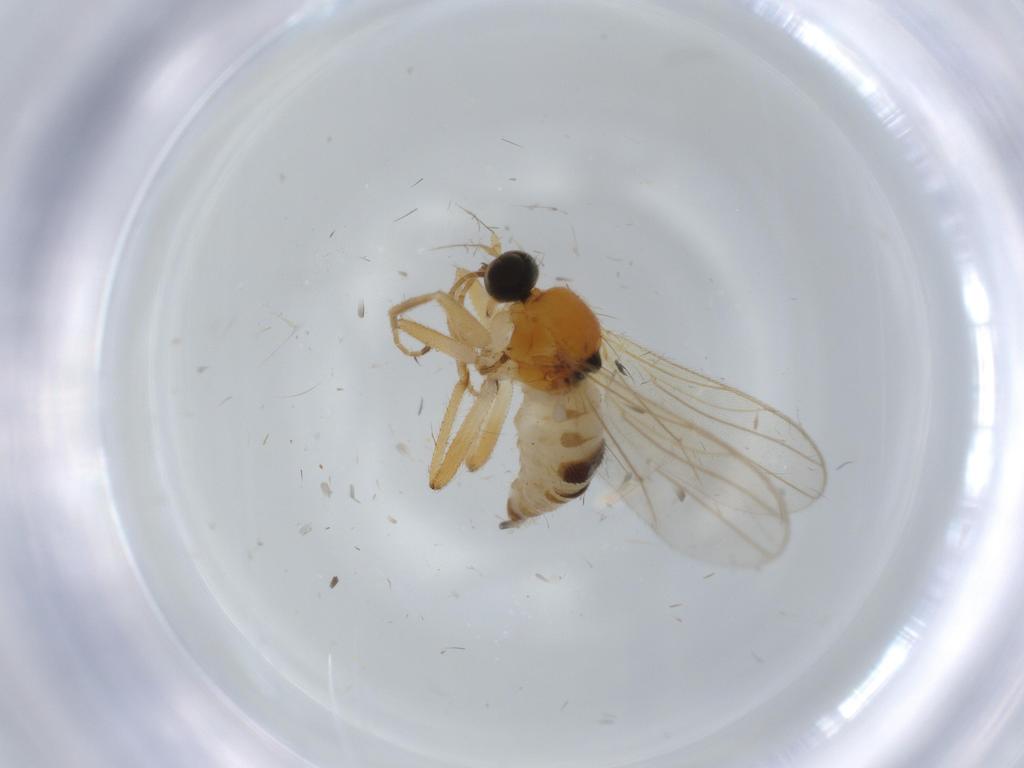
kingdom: Animalia
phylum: Arthropoda
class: Insecta
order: Diptera
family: Hybotidae
